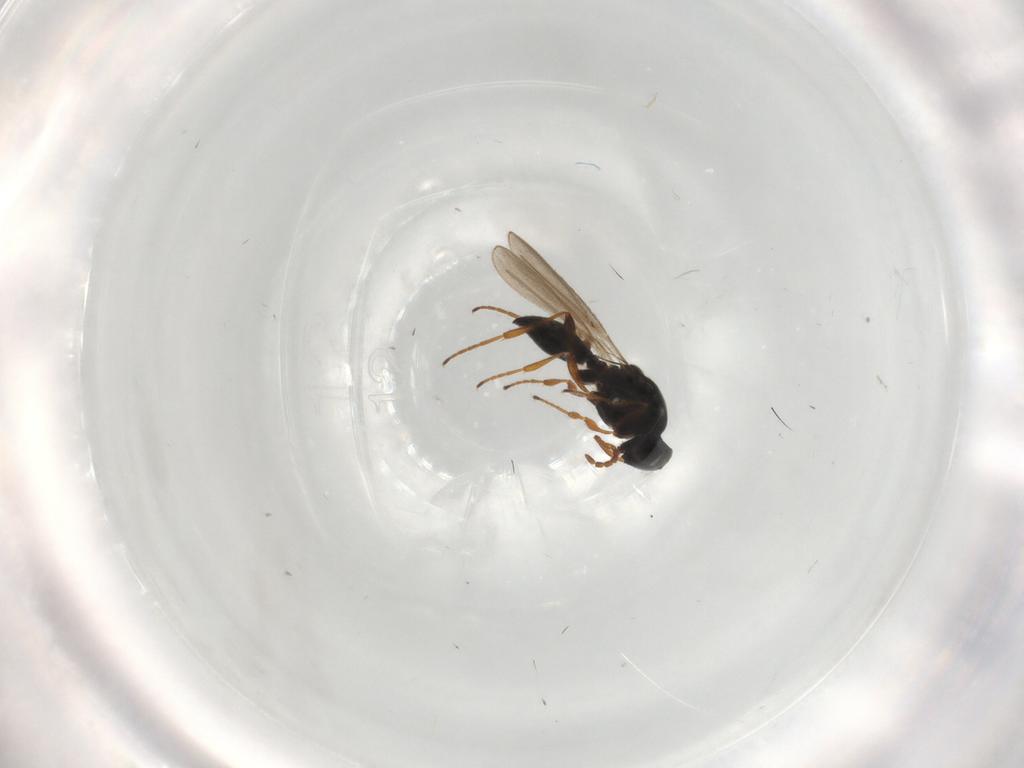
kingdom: Animalia
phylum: Arthropoda
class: Insecta
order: Hymenoptera
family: Platygastridae
